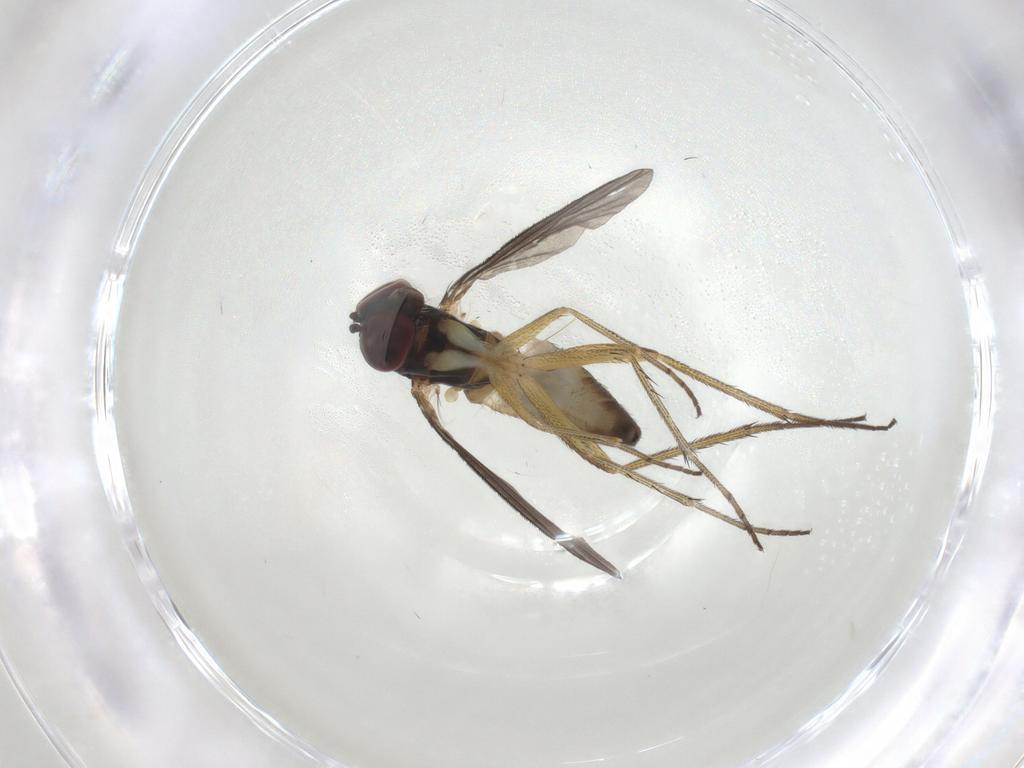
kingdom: Animalia
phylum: Arthropoda
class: Insecta
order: Diptera
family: Dolichopodidae
